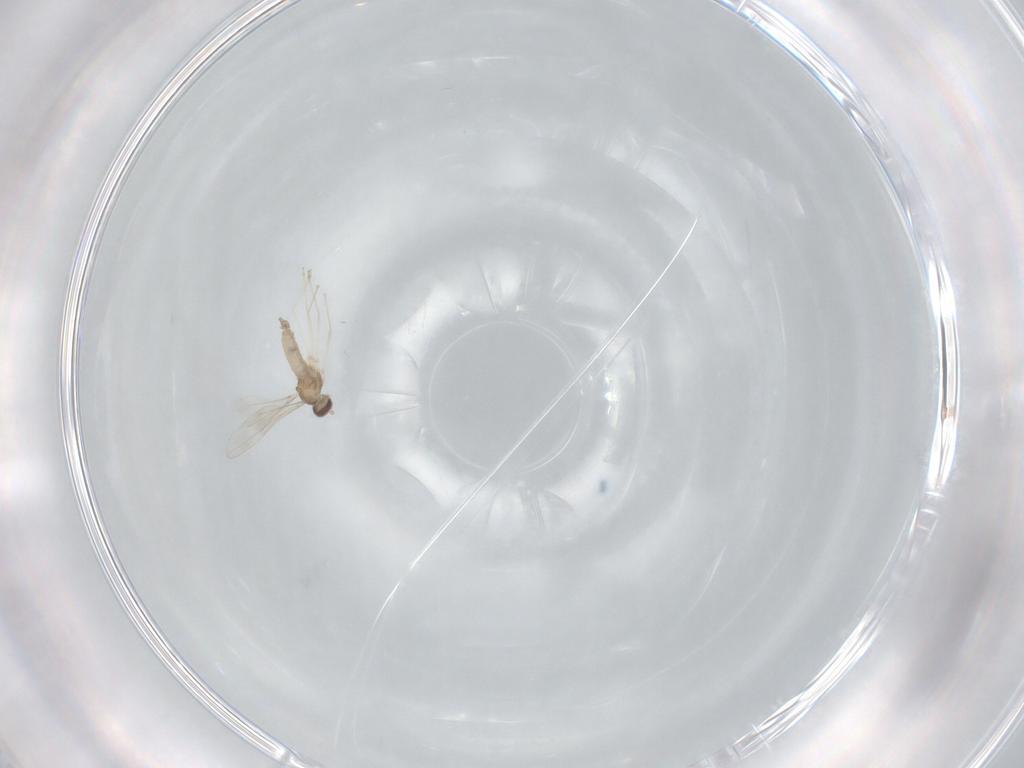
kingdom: Animalia
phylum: Arthropoda
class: Insecta
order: Diptera
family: Cecidomyiidae
